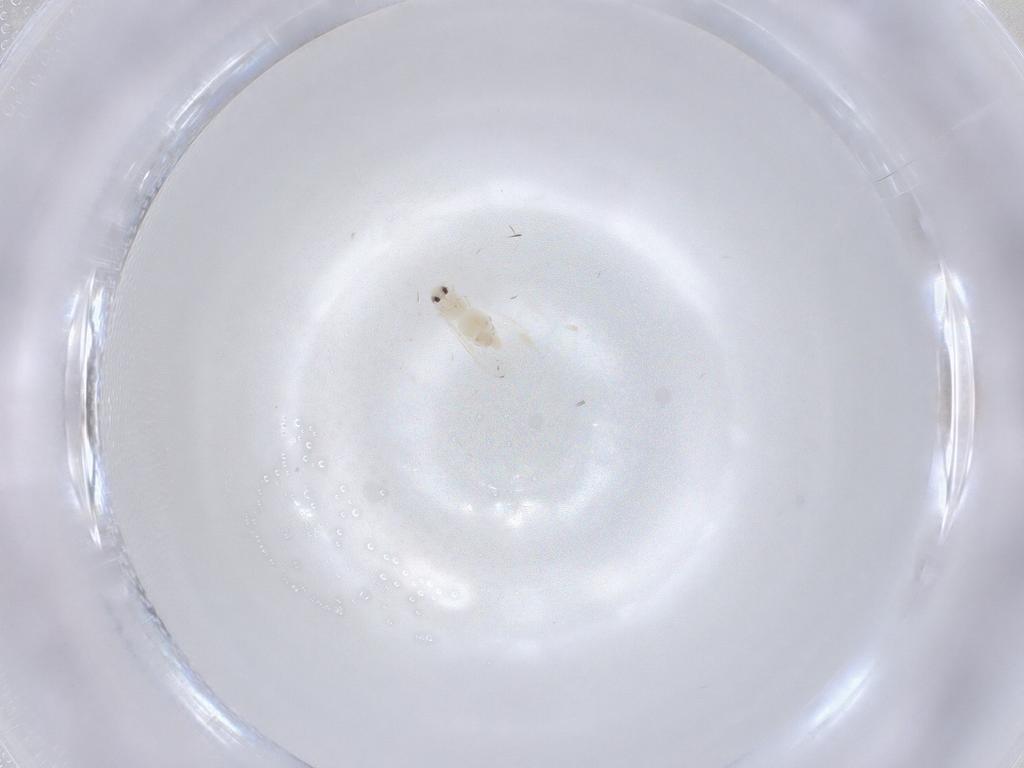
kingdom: Animalia
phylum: Arthropoda
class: Insecta
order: Hemiptera
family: Aleyrodidae
